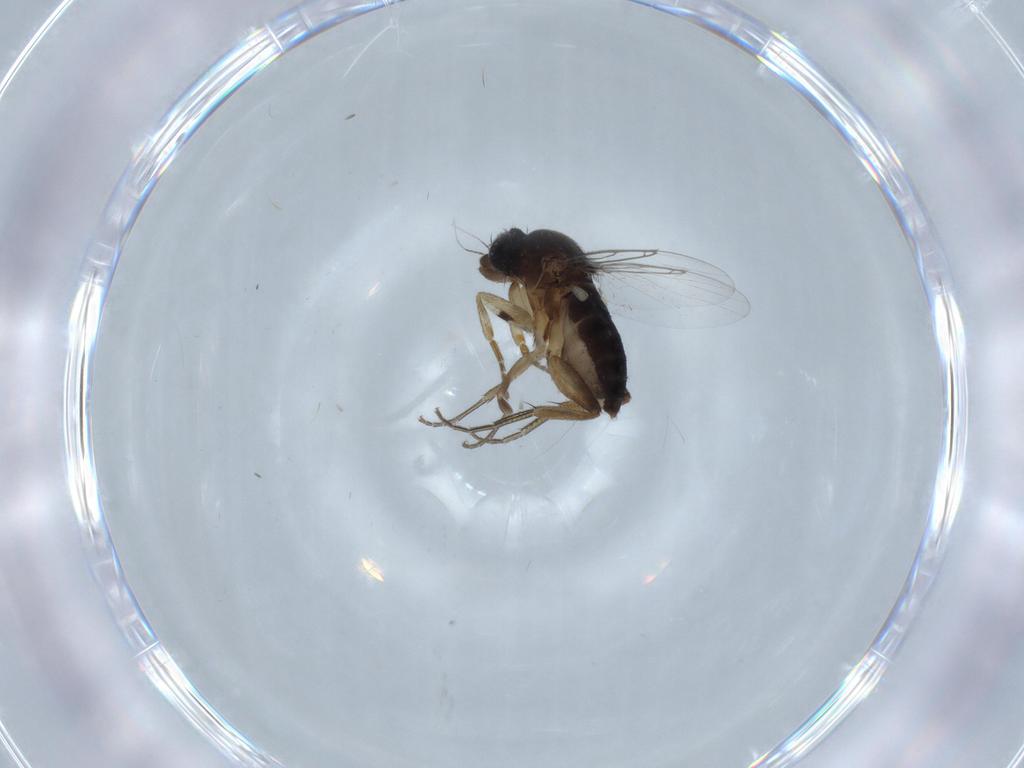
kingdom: Animalia
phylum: Arthropoda
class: Insecta
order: Diptera
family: Phoridae
